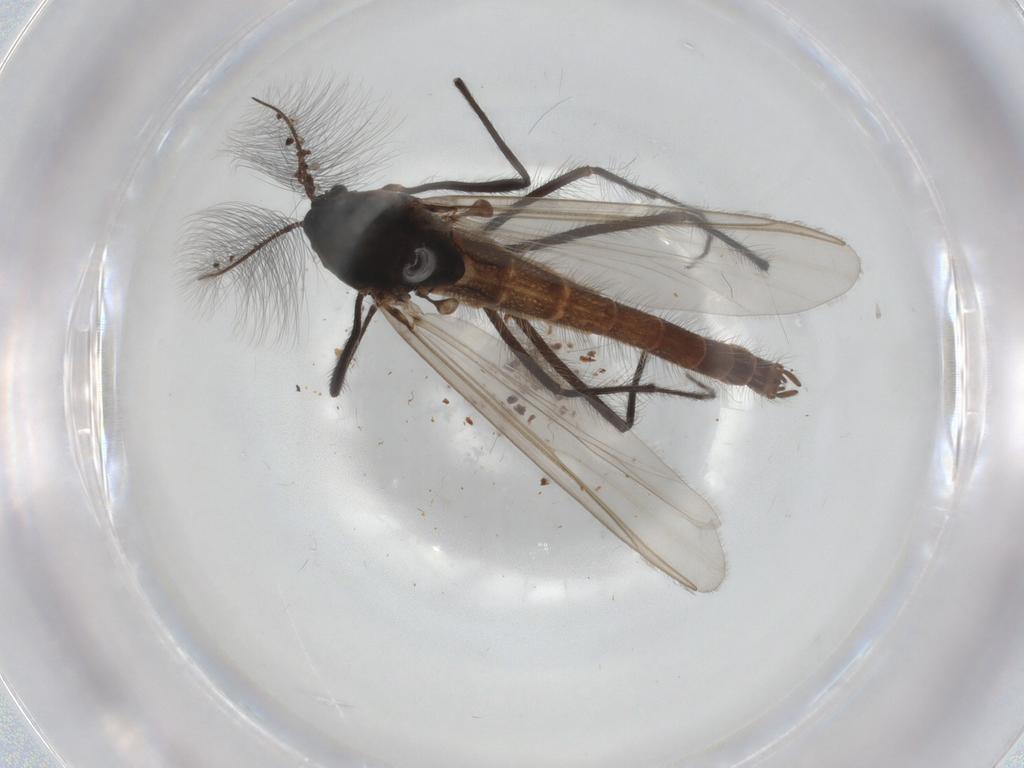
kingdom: Animalia
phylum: Arthropoda
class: Insecta
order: Diptera
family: Chironomidae
